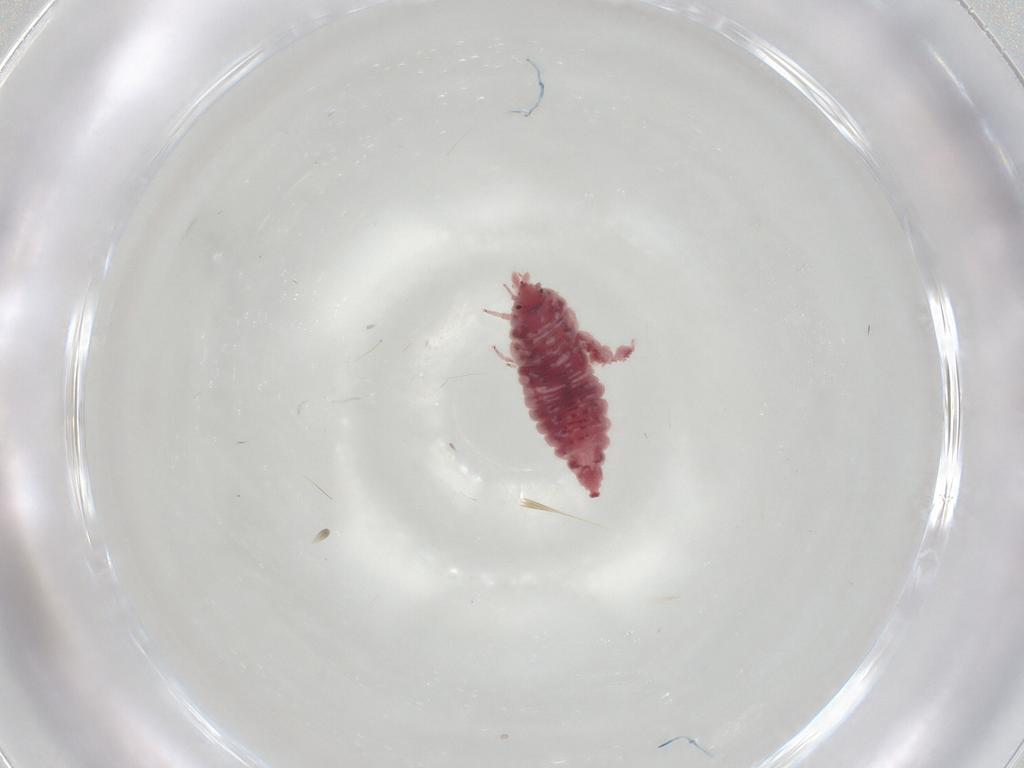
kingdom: Animalia
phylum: Arthropoda
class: Insecta
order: Neuroptera
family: Coniopterygidae
